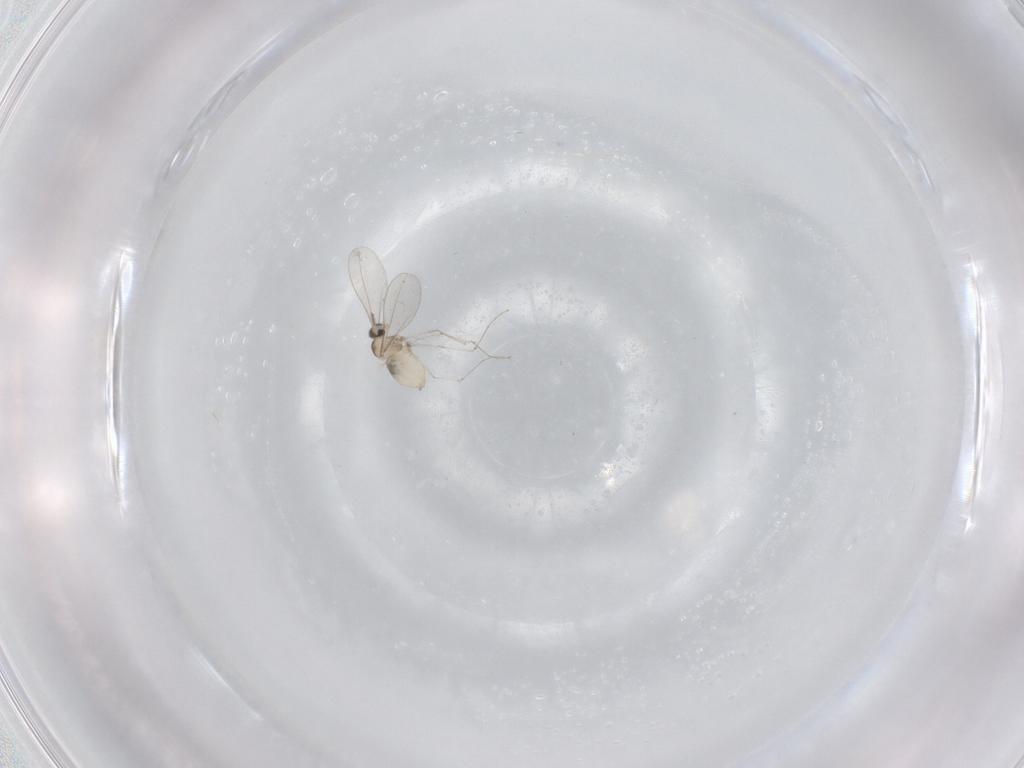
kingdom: Animalia
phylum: Arthropoda
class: Insecta
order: Diptera
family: Cecidomyiidae
